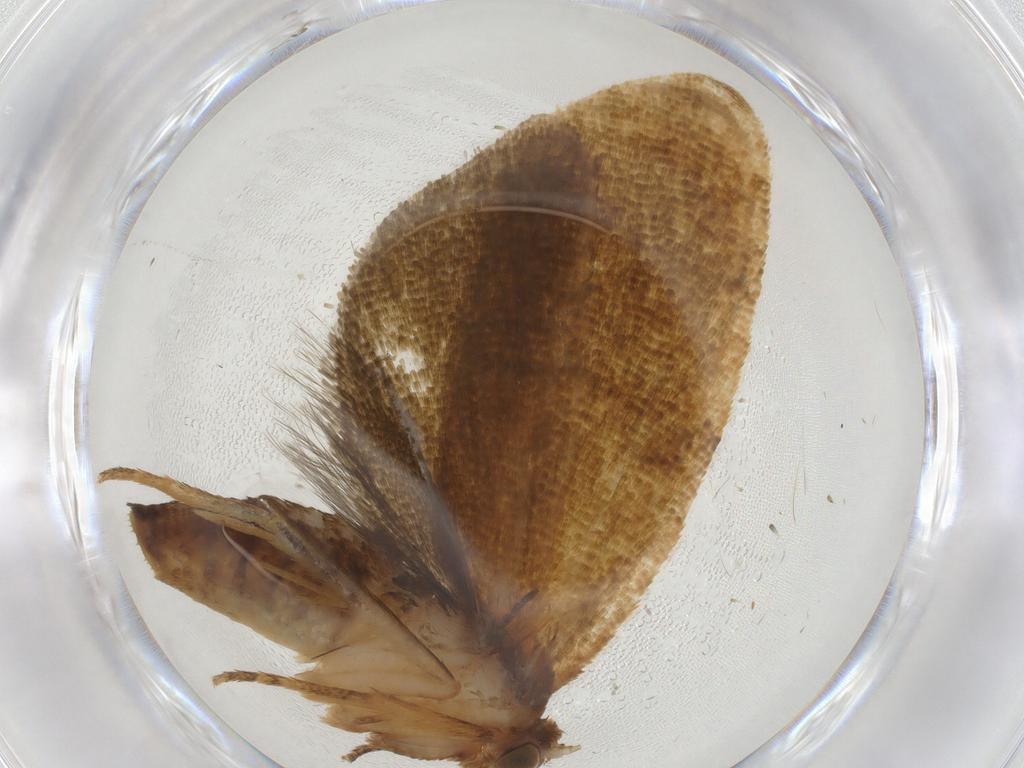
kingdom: Animalia
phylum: Arthropoda
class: Insecta
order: Lepidoptera
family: Tortricidae
